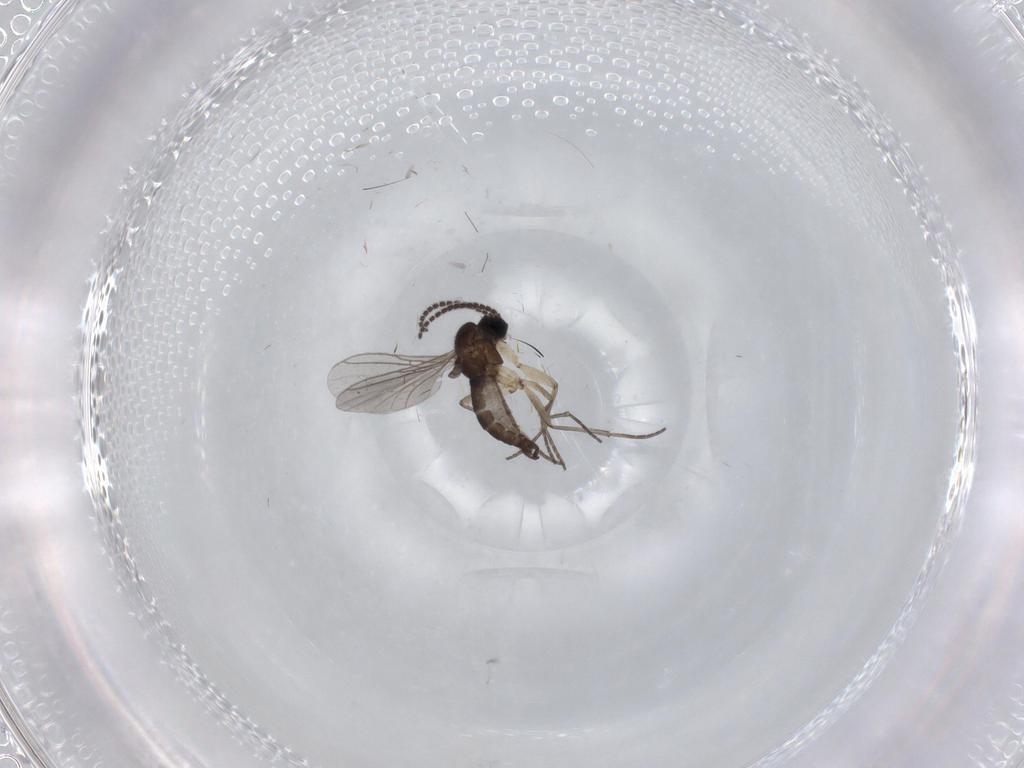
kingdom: Animalia
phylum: Arthropoda
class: Insecta
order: Diptera
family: Sciaridae
